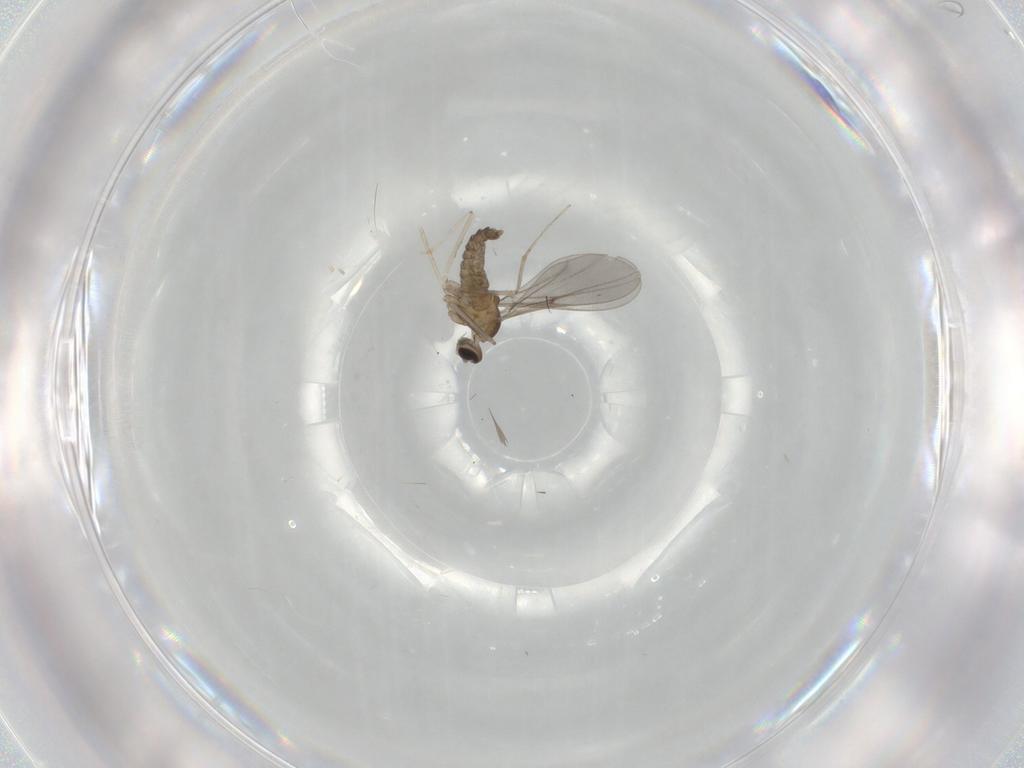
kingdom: Animalia
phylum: Arthropoda
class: Insecta
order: Diptera
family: Cecidomyiidae
